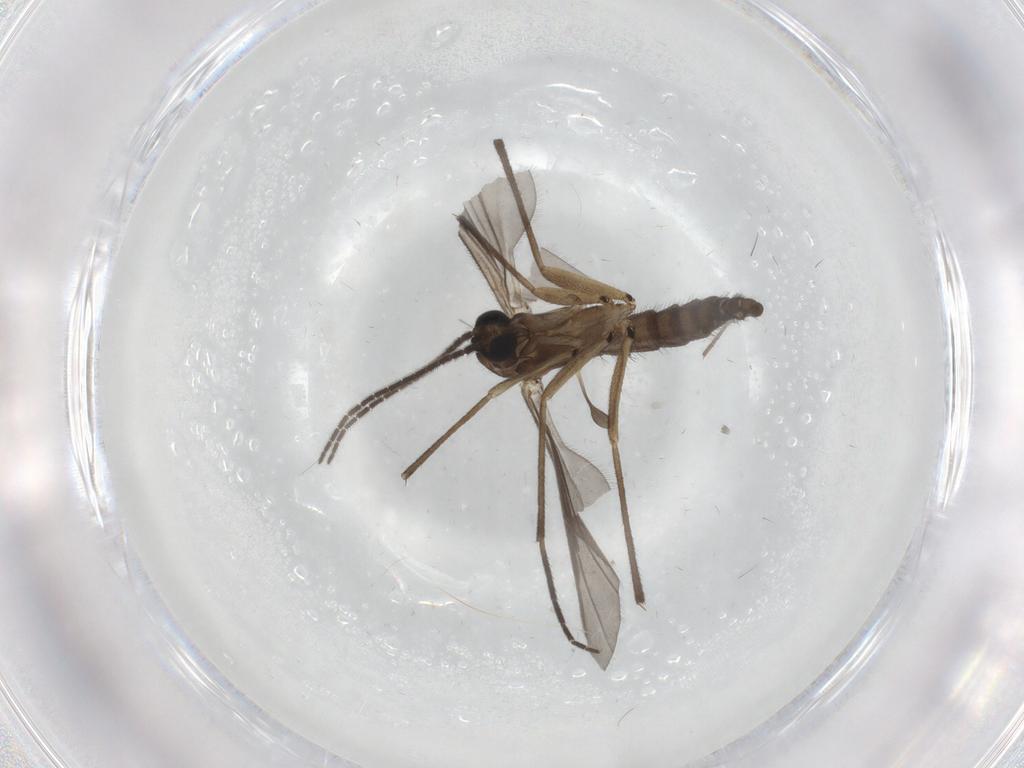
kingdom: Animalia
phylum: Arthropoda
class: Insecta
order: Diptera
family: Sciaridae
